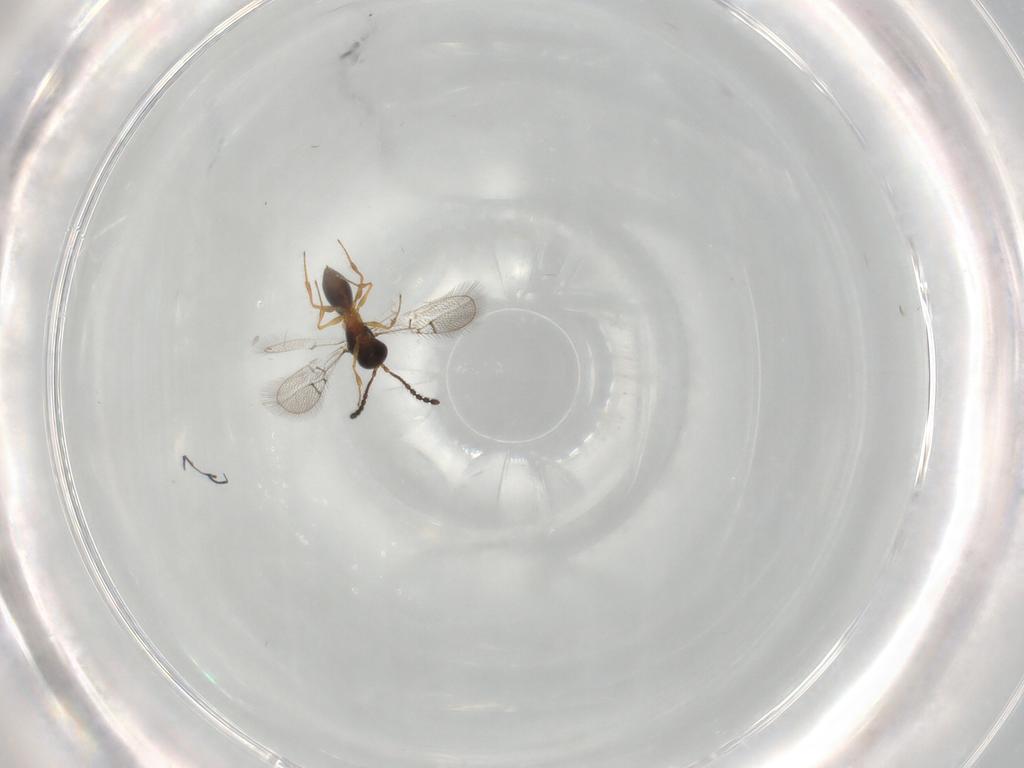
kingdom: Animalia
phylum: Arthropoda
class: Insecta
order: Hymenoptera
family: Figitidae
